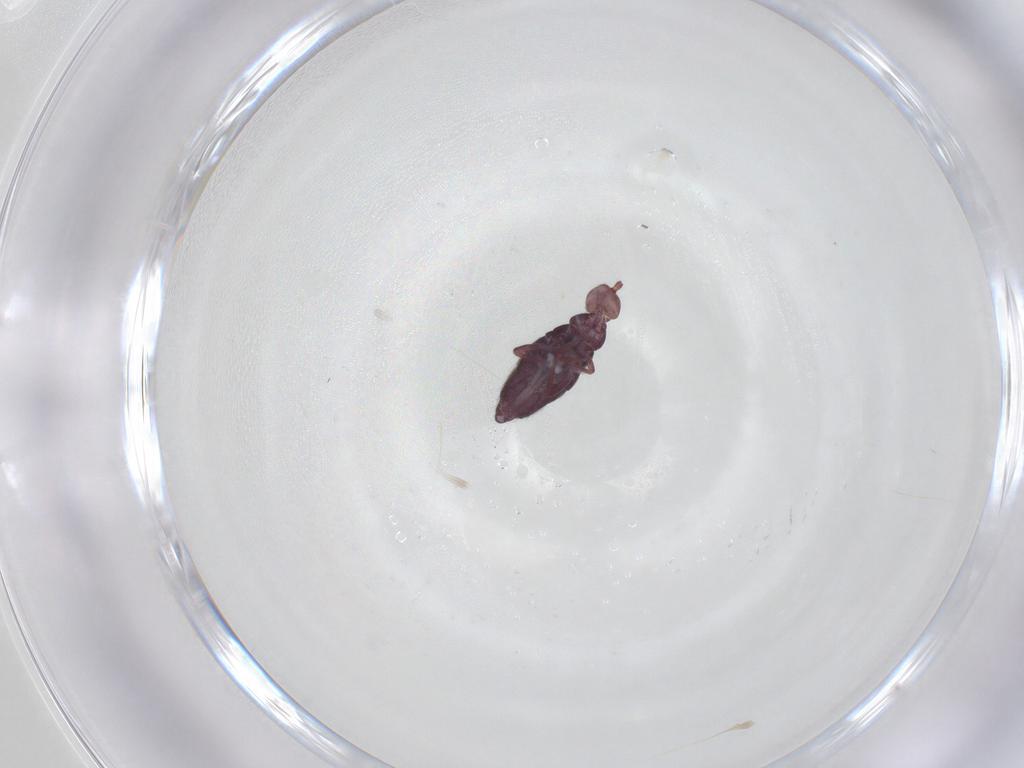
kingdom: Animalia
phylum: Arthropoda
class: Collembola
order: Entomobryomorpha
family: Entomobryidae
